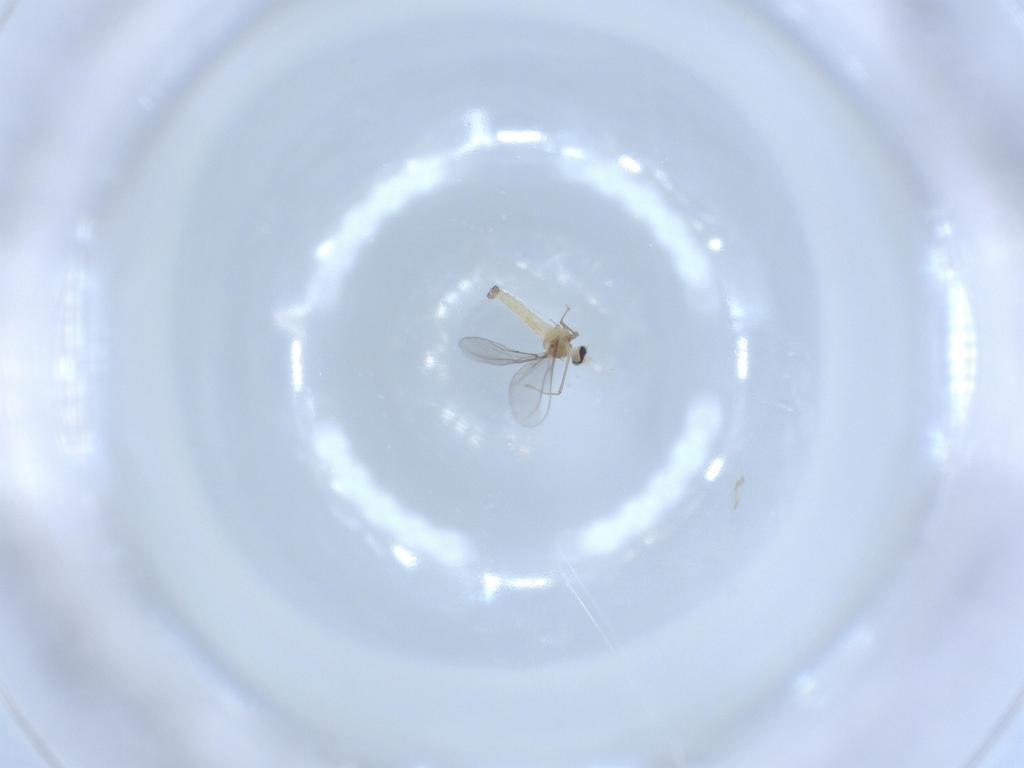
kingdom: Animalia
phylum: Arthropoda
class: Insecta
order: Diptera
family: Cecidomyiidae
